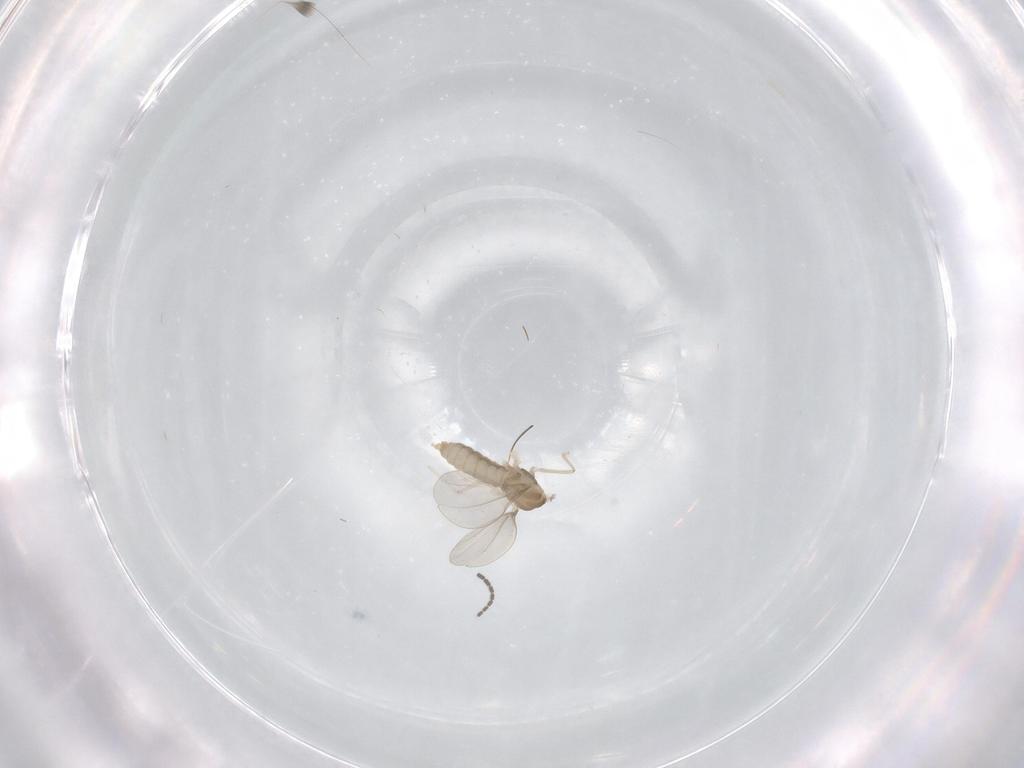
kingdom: Animalia
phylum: Arthropoda
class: Insecta
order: Diptera
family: Cecidomyiidae
